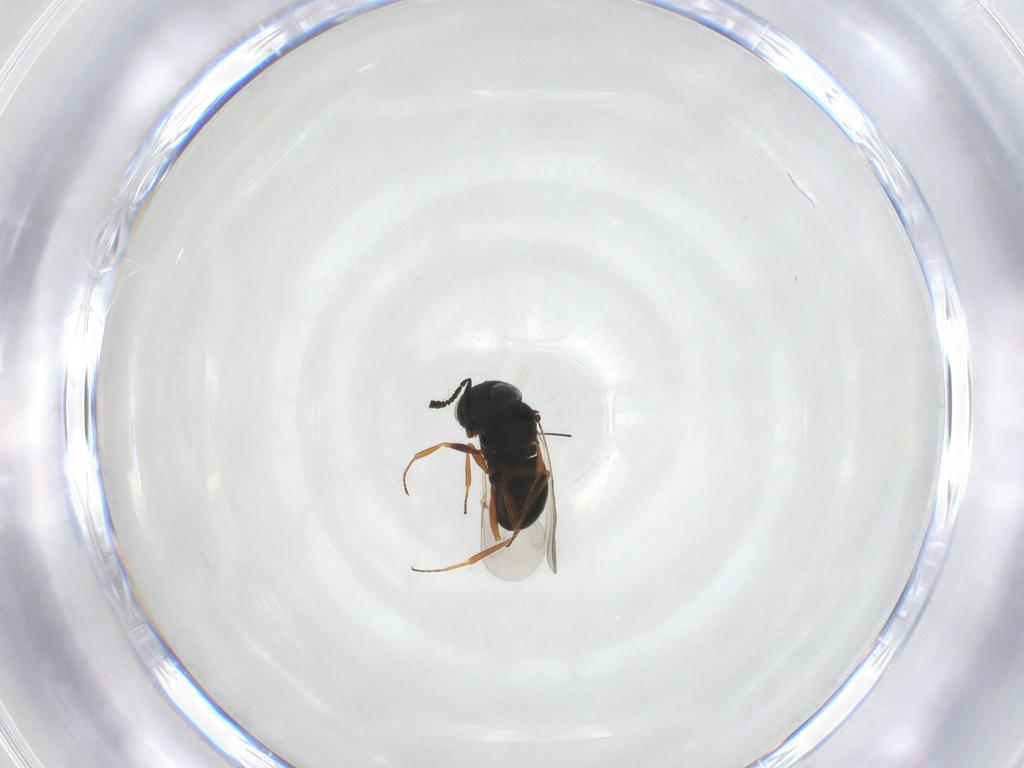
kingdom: Animalia
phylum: Arthropoda
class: Insecta
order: Hymenoptera
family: Scelionidae
